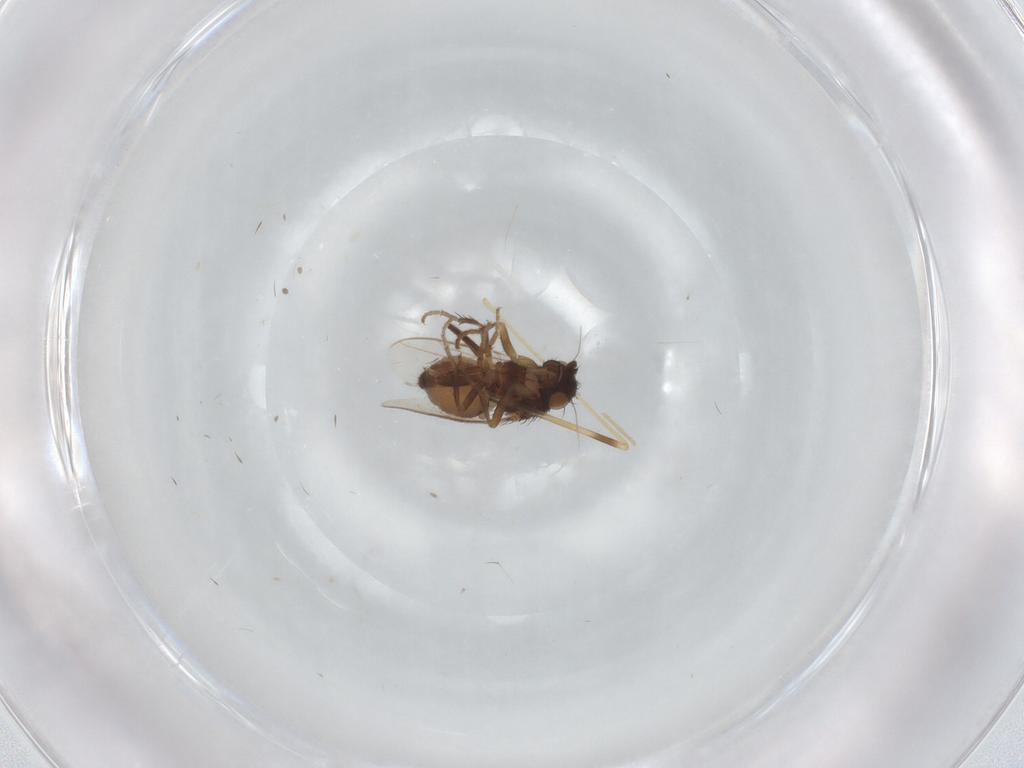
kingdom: Animalia
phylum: Arthropoda
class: Insecta
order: Diptera
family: Sphaeroceridae
